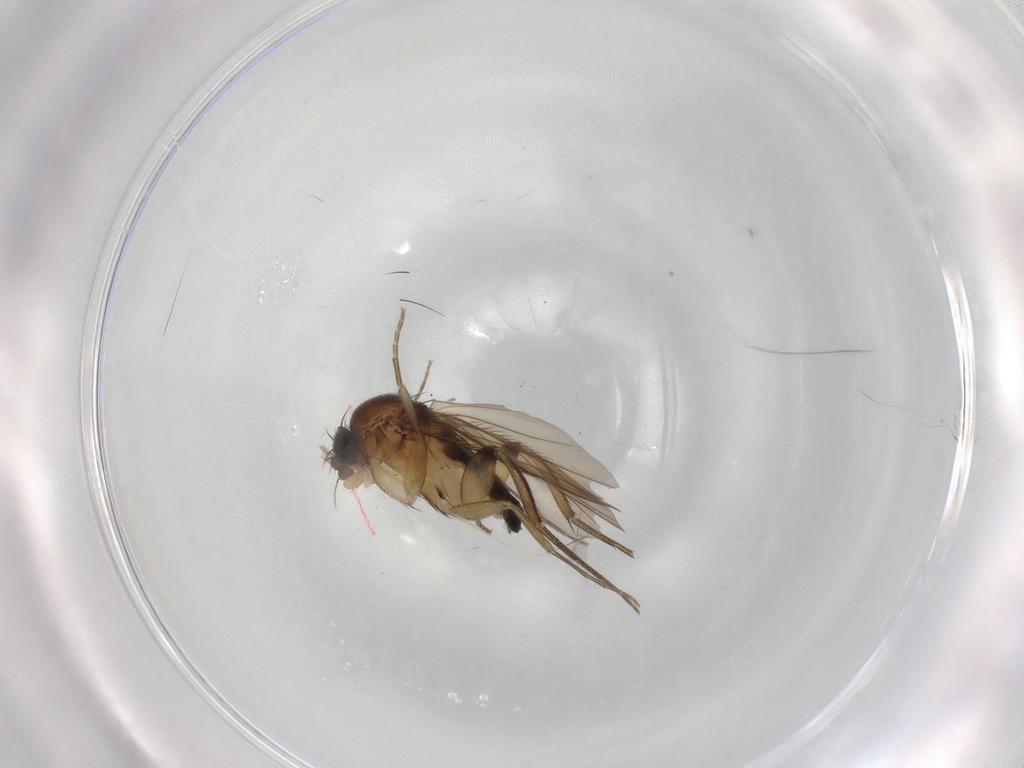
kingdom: Animalia
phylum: Arthropoda
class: Insecta
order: Diptera
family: Phoridae
